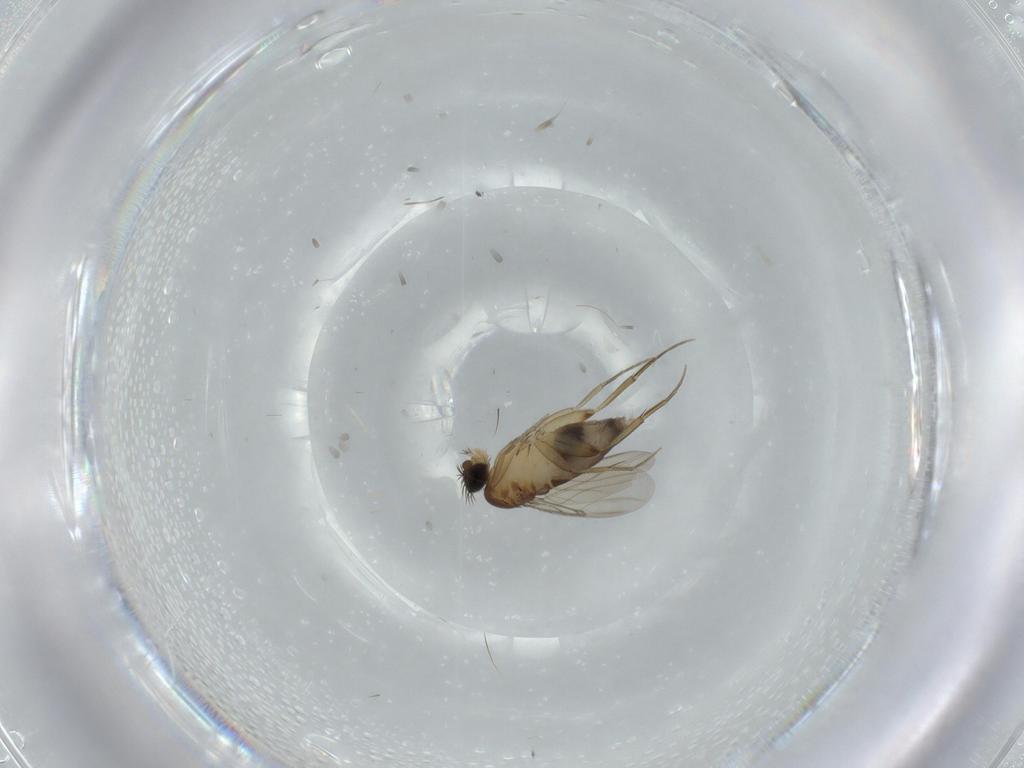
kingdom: Animalia
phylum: Arthropoda
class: Insecta
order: Diptera
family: Phoridae
